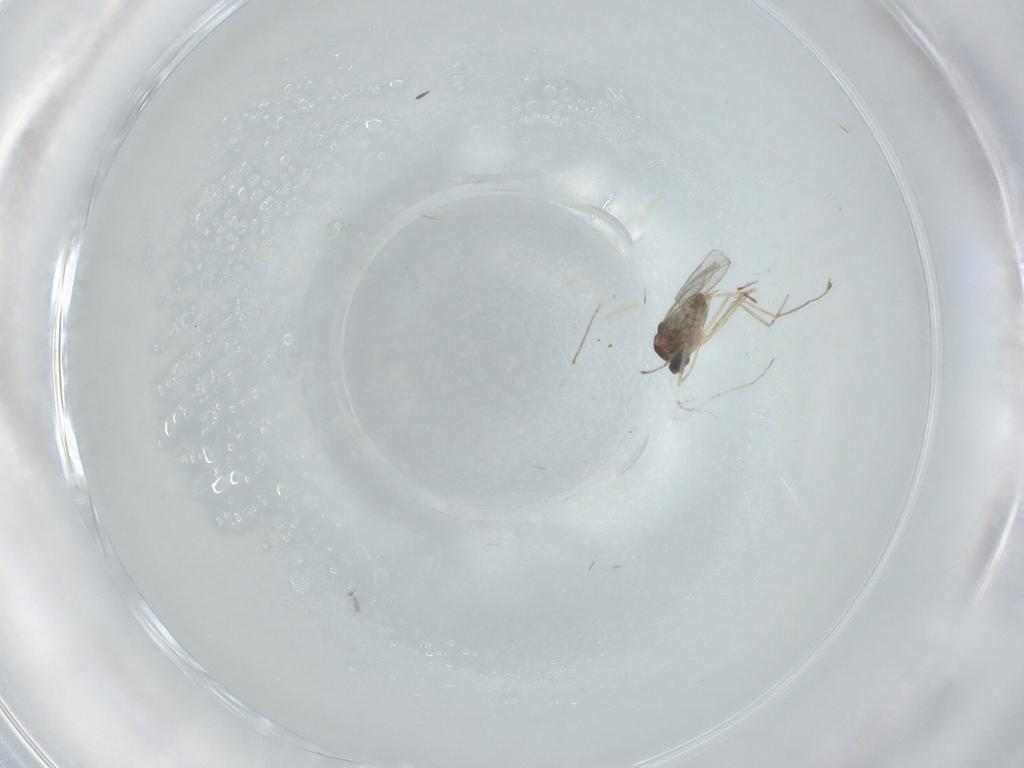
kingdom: Animalia
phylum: Arthropoda
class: Insecta
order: Diptera
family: Cecidomyiidae
